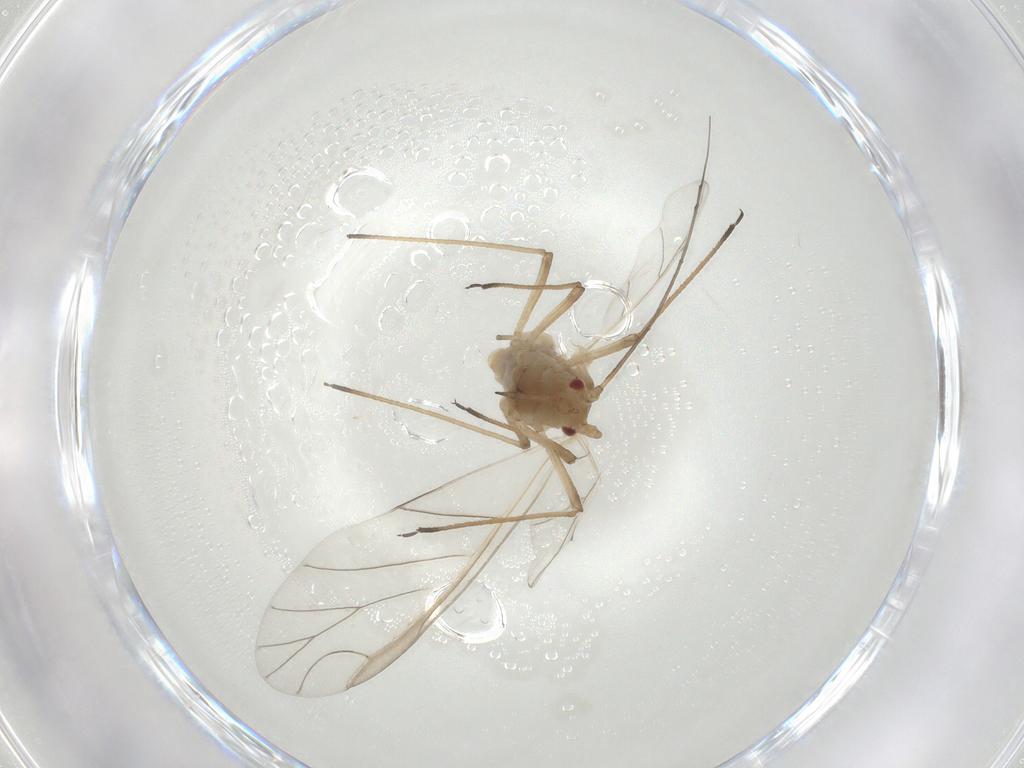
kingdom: Animalia
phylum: Arthropoda
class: Insecta
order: Hemiptera
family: Aphididae
